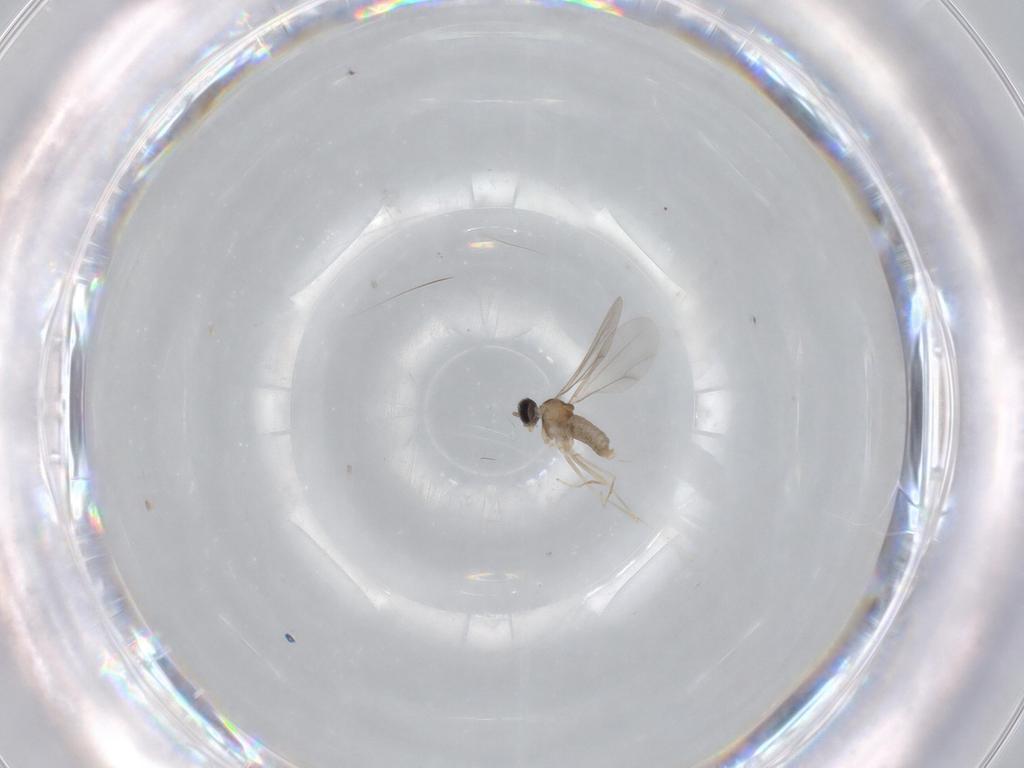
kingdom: Animalia
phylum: Arthropoda
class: Insecta
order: Diptera
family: Cecidomyiidae
